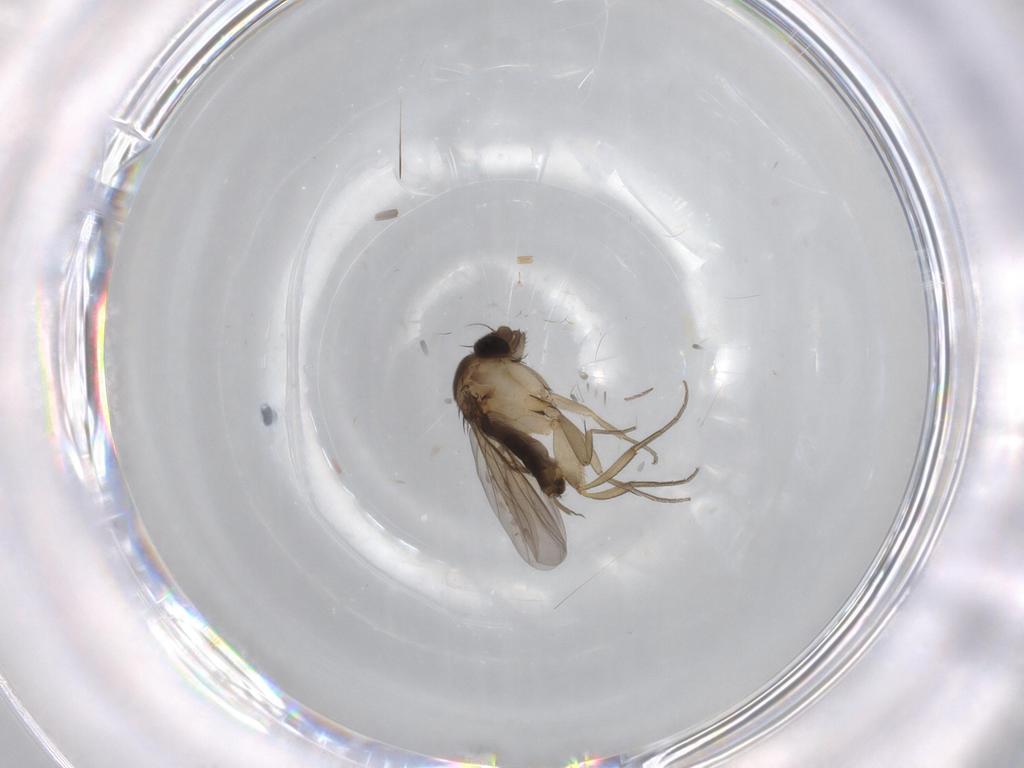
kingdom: Animalia
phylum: Arthropoda
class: Insecta
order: Diptera
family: Phoridae
